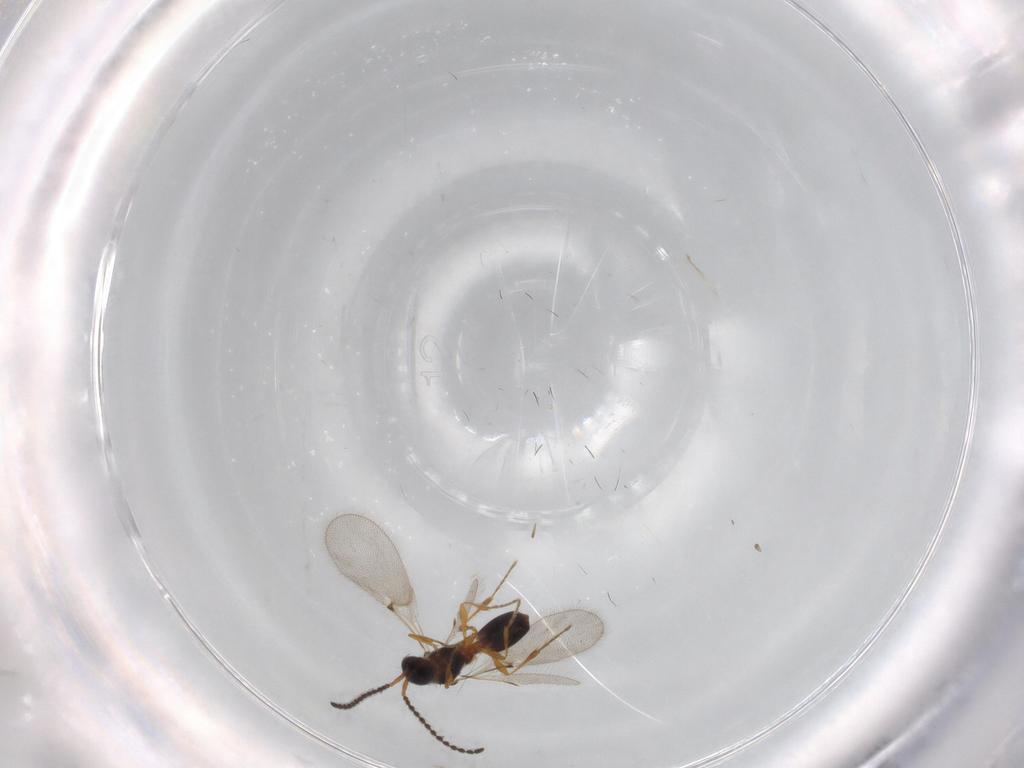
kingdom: Animalia
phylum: Arthropoda
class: Insecta
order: Hymenoptera
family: Diapriidae
